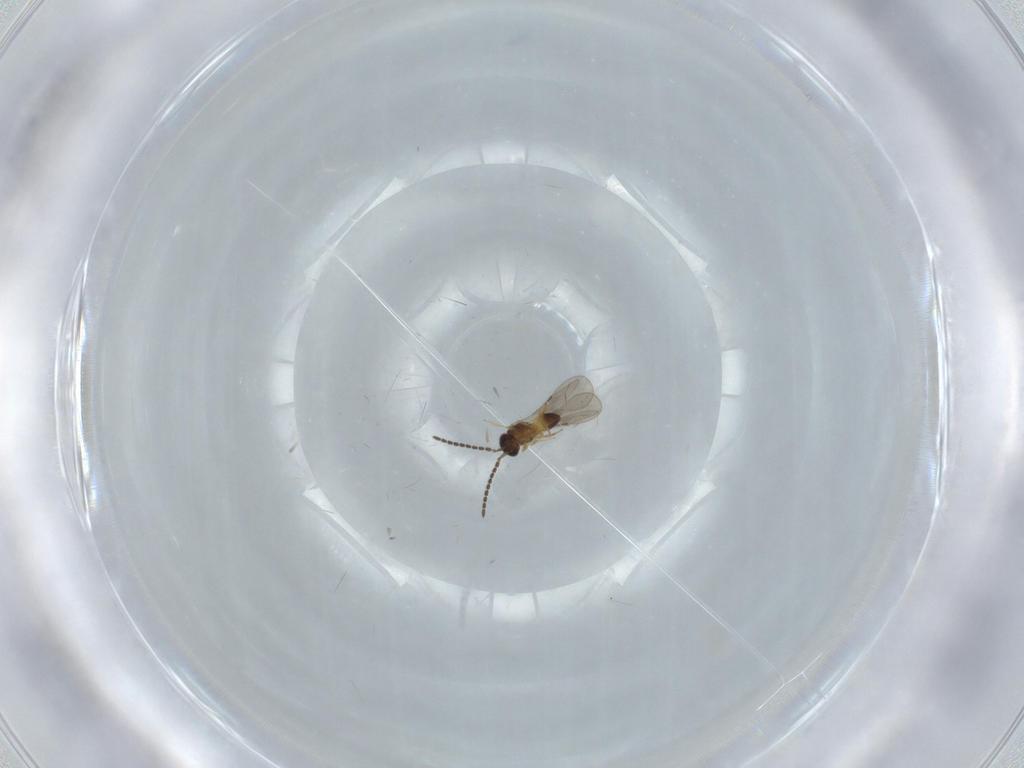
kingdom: Animalia
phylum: Arthropoda
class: Insecta
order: Hymenoptera
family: Ceraphronidae
